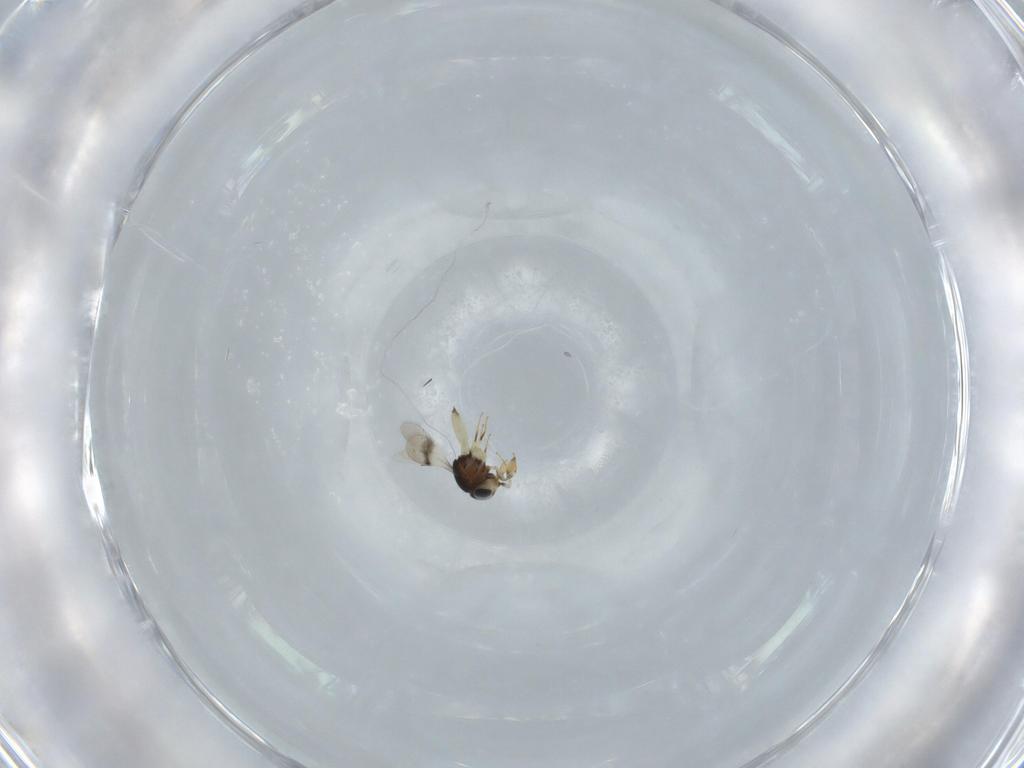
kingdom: Animalia
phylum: Arthropoda
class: Insecta
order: Hymenoptera
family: Scelionidae
